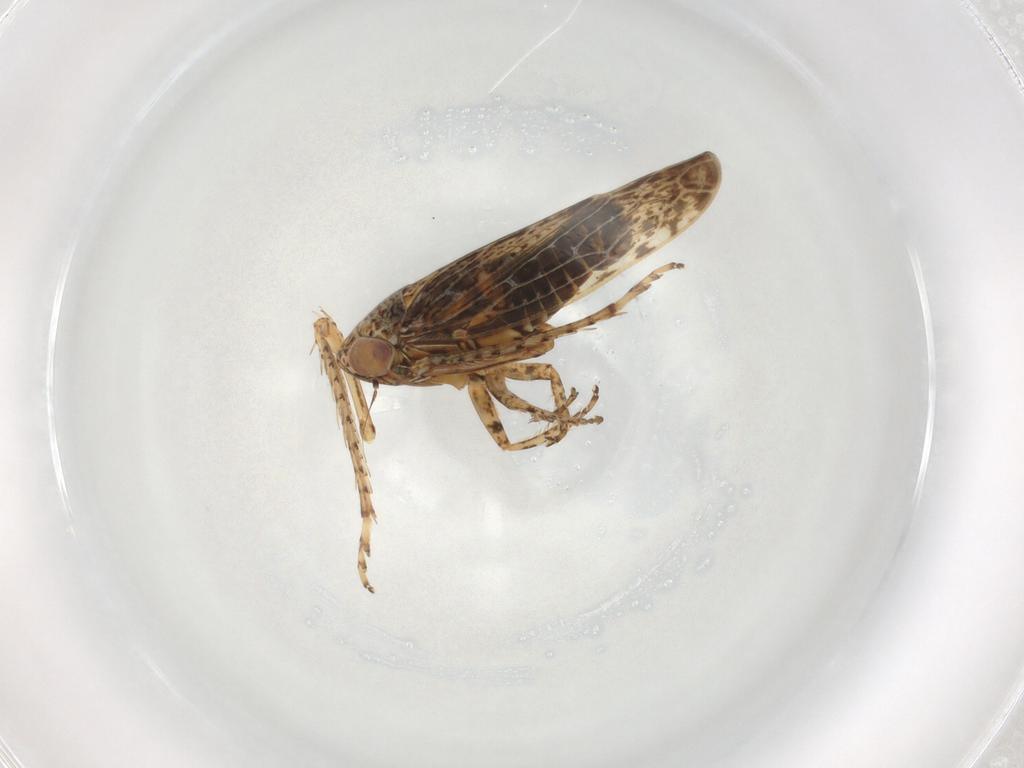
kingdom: Animalia
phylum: Arthropoda
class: Insecta
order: Hemiptera
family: Cicadellidae
